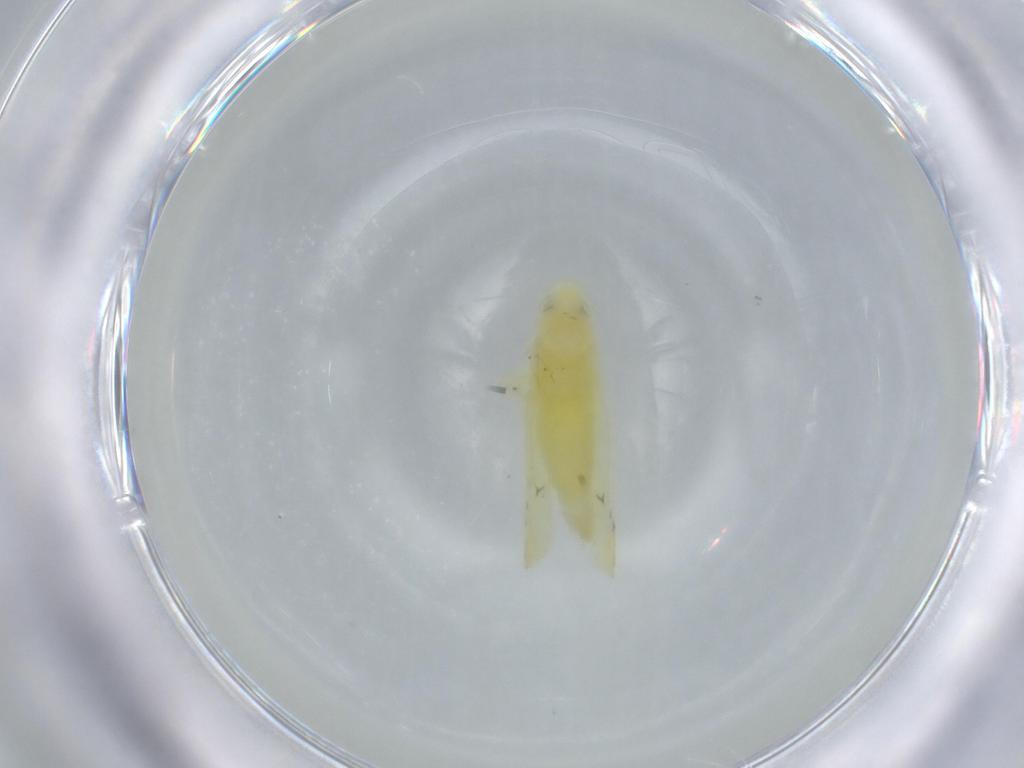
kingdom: Animalia
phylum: Arthropoda
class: Insecta
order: Hemiptera
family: Cicadellidae
